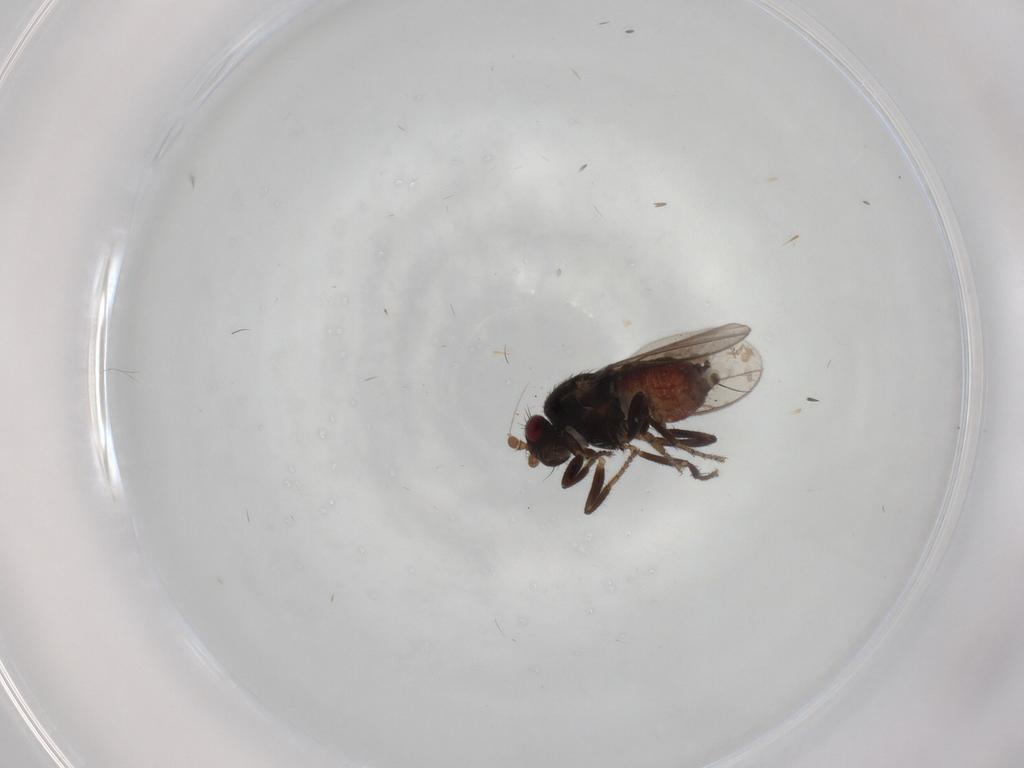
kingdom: Animalia
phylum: Arthropoda
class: Insecta
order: Diptera
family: Sphaeroceridae
